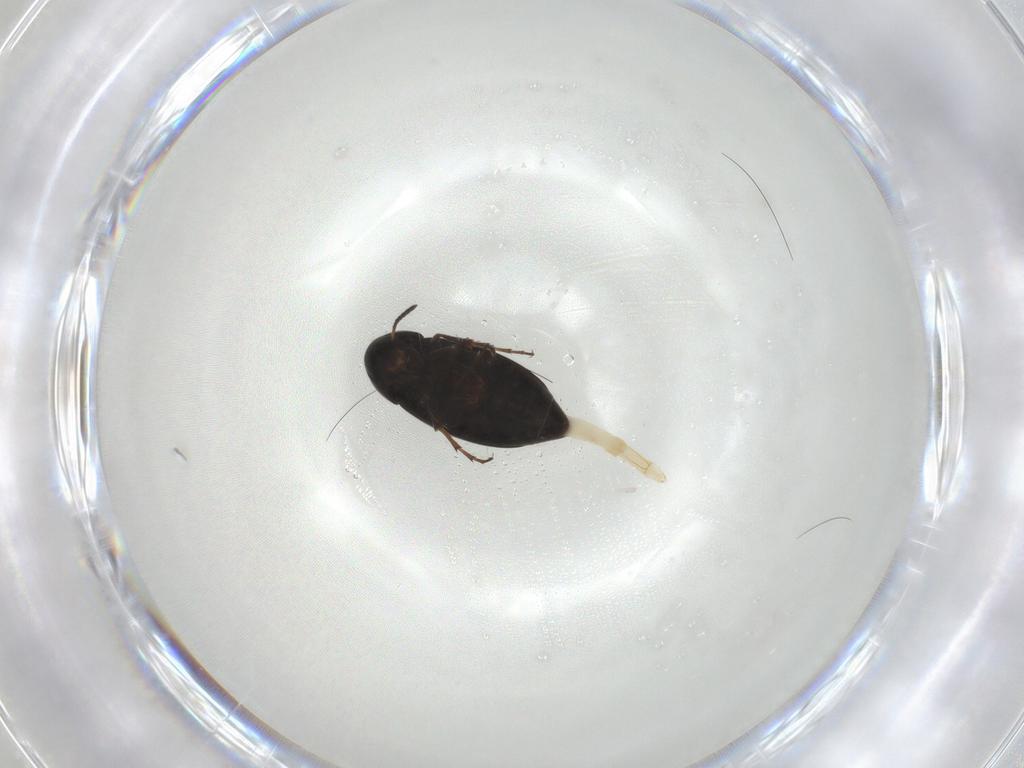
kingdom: Animalia
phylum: Arthropoda
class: Insecta
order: Coleoptera
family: Scraptiidae
